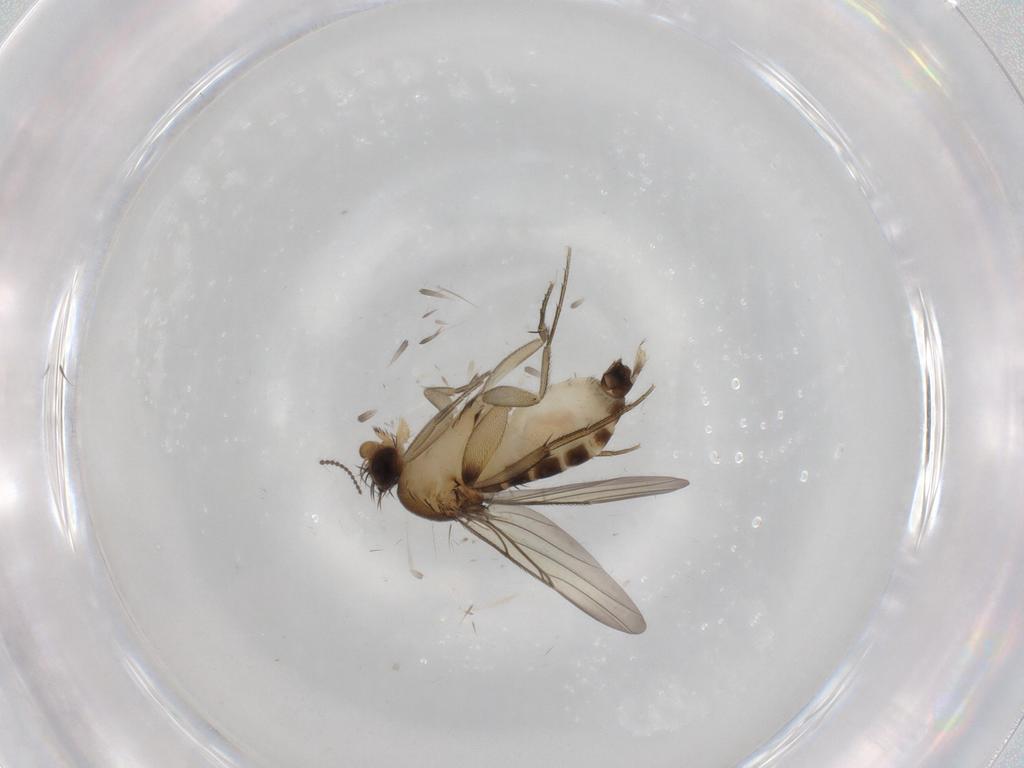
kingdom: Animalia
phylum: Arthropoda
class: Insecta
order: Diptera
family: Phoridae
